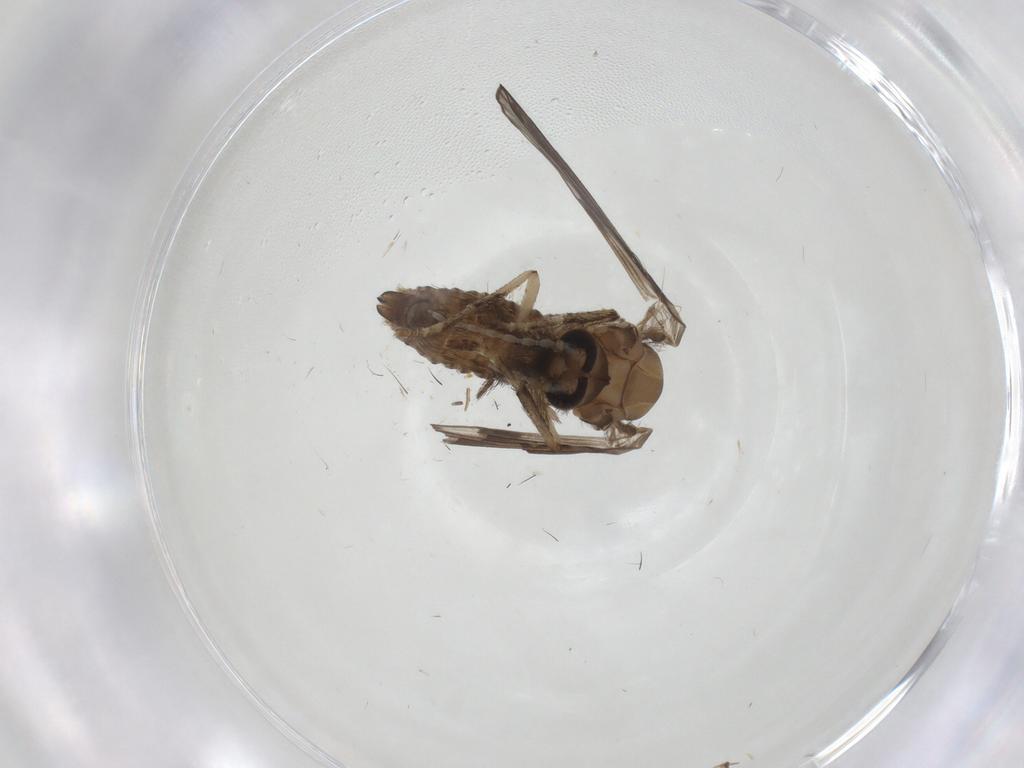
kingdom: Animalia
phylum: Arthropoda
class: Insecta
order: Diptera
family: Psychodidae
